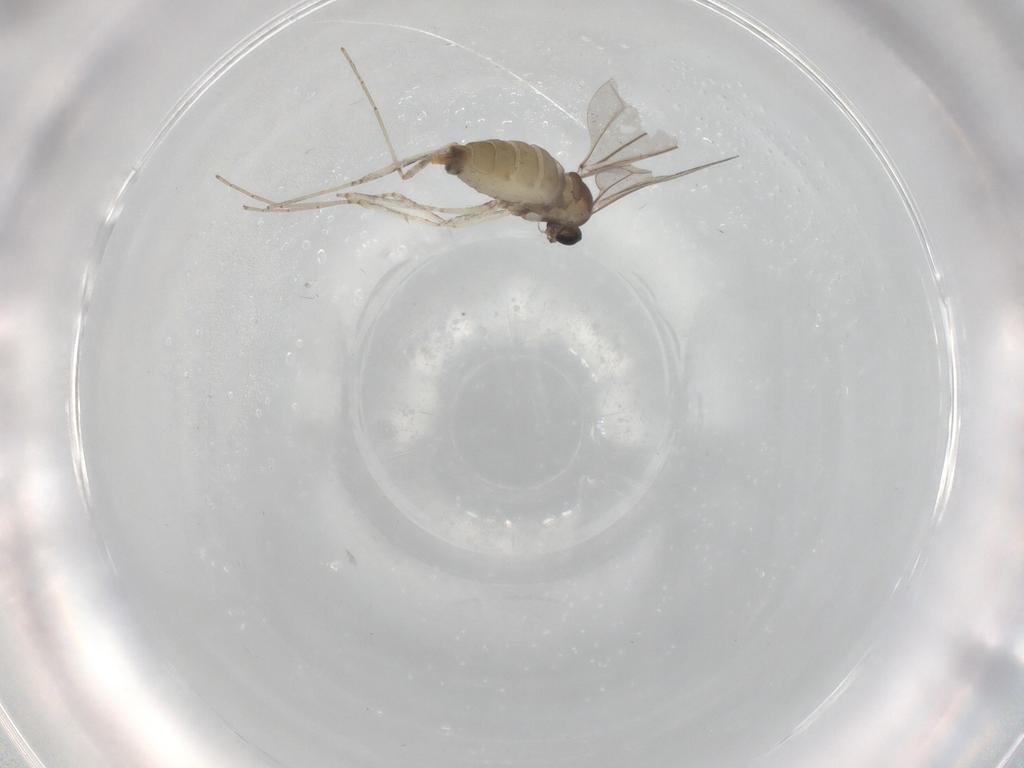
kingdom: Animalia
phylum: Arthropoda
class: Insecta
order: Diptera
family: Cecidomyiidae
